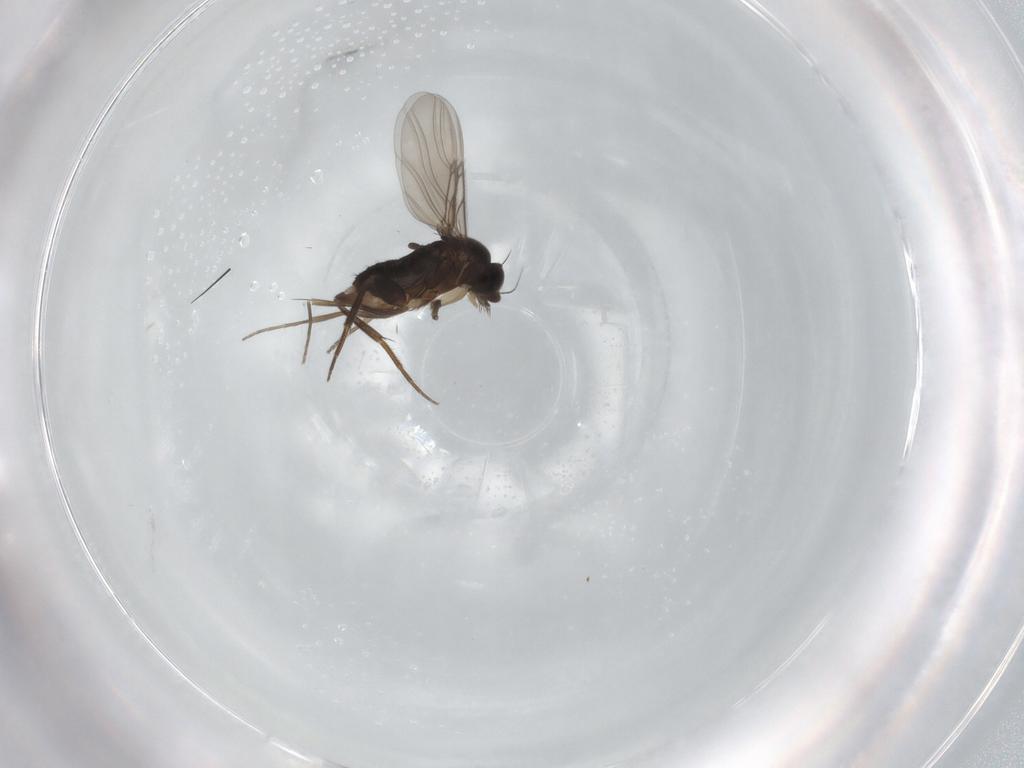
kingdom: Animalia
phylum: Arthropoda
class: Insecta
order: Diptera
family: Phoridae
